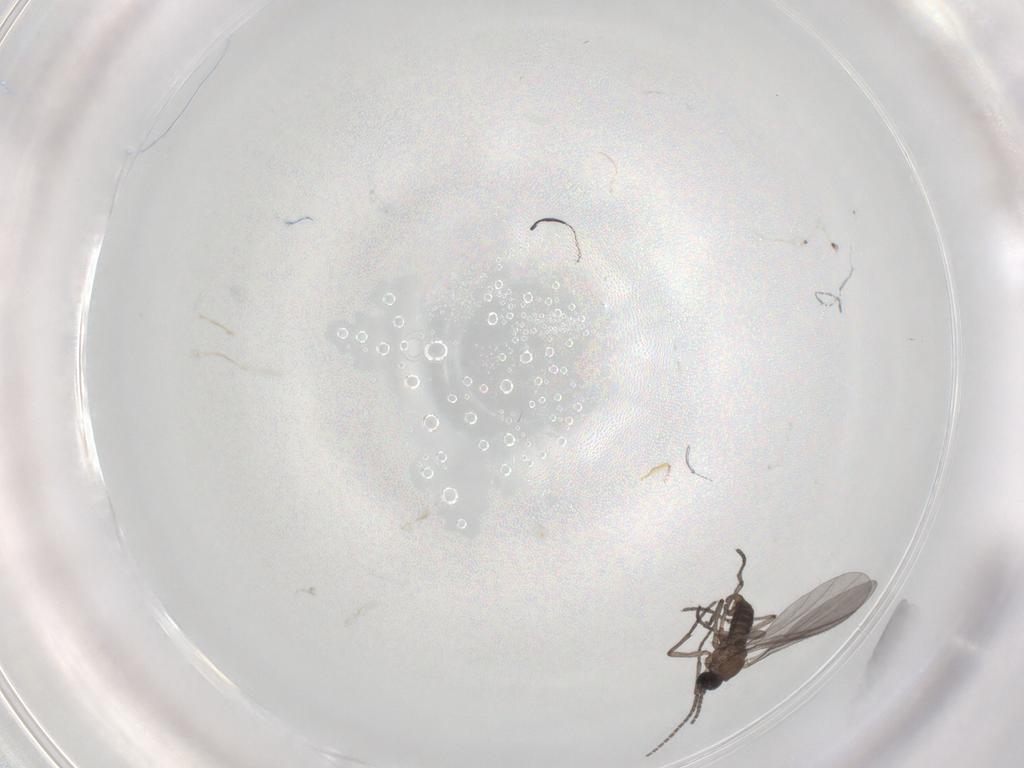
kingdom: Animalia
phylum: Arthropoda
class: Insecta
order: Diptera
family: Sciaridae
